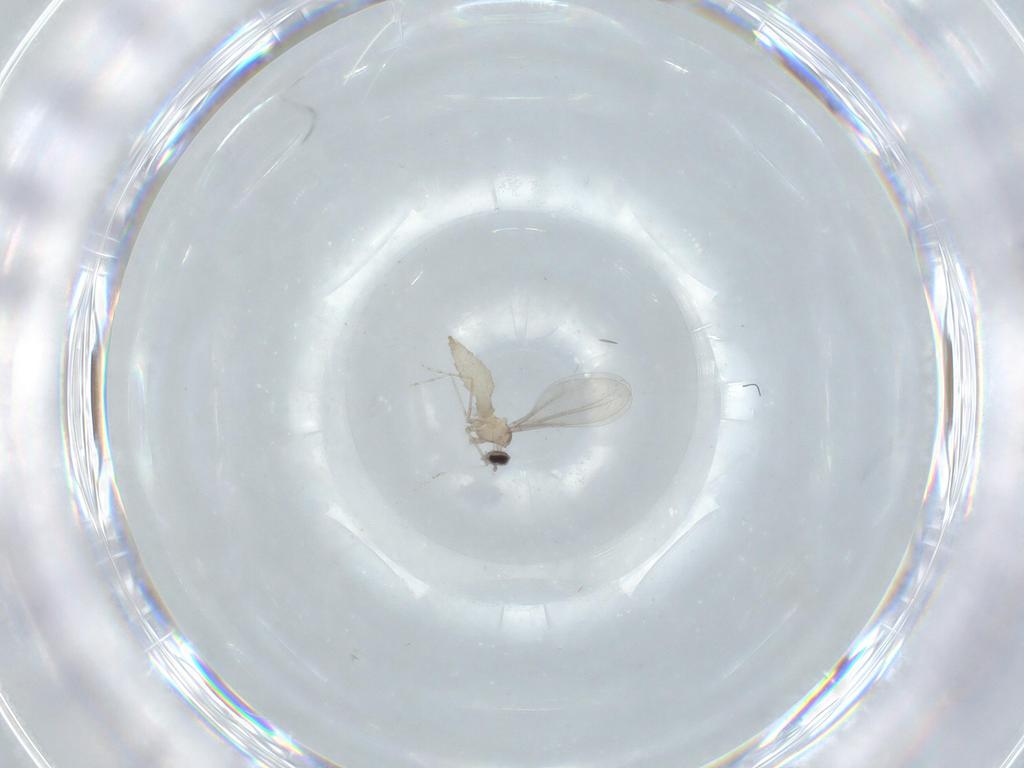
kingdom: Animalia
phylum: Arthropoda
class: Insecta
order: Diptera
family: Cecidomyiidae
